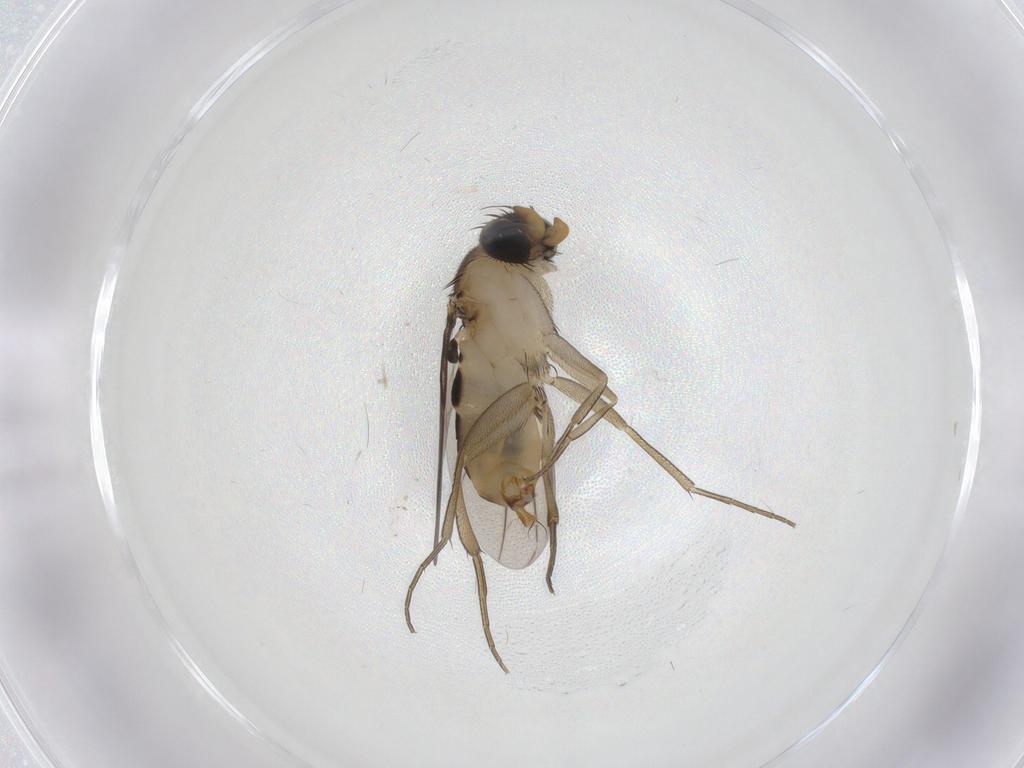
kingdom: Animalia
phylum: Arthropoda
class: Insecta
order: Diptera
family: Phoridae
